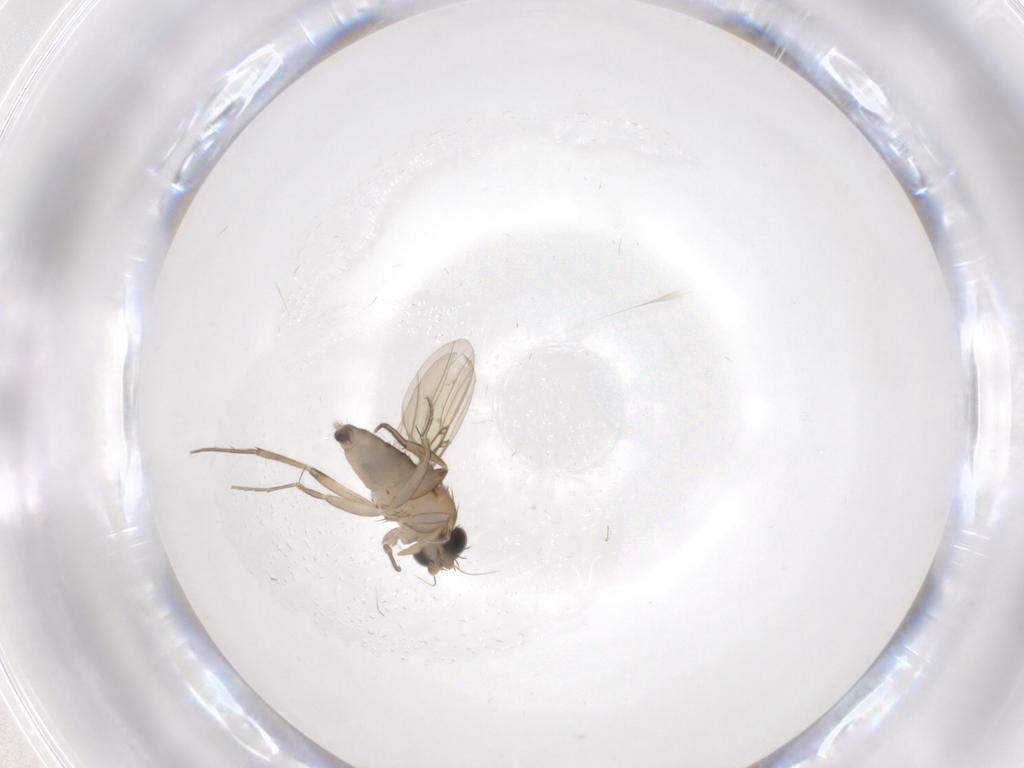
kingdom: Animalia
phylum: Arthropoda
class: Insecta
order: Diptera
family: Phoridae
